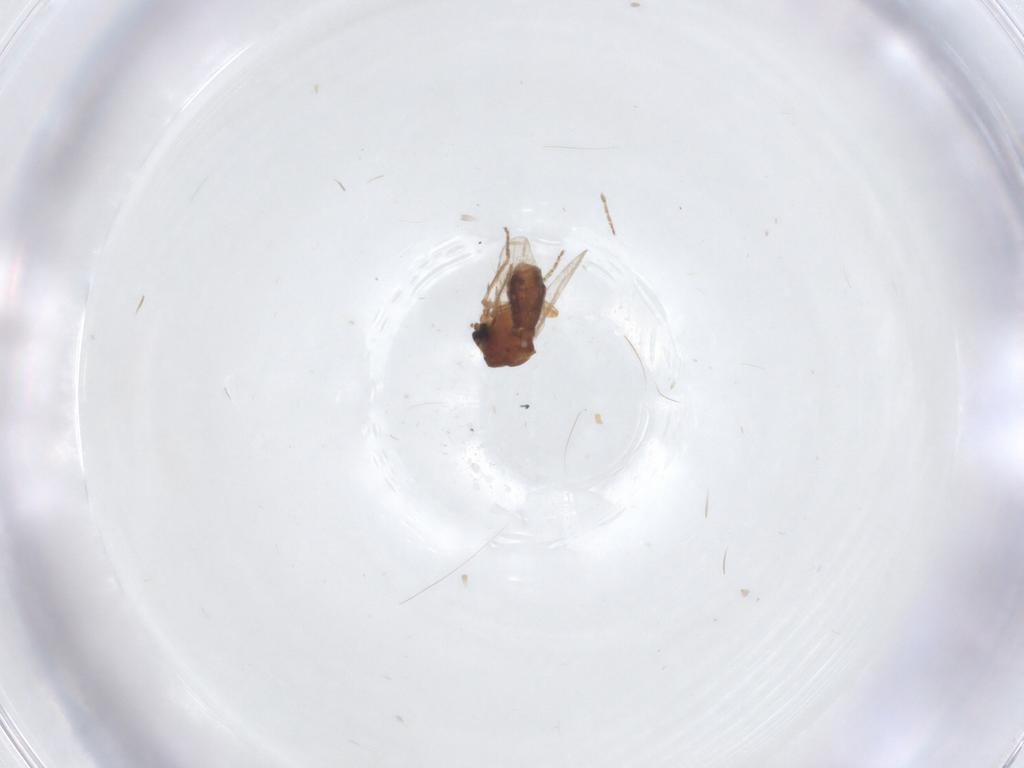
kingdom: Animalia
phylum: Arthropoda
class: Insecta
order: Diptera
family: Ceratopogonidae
